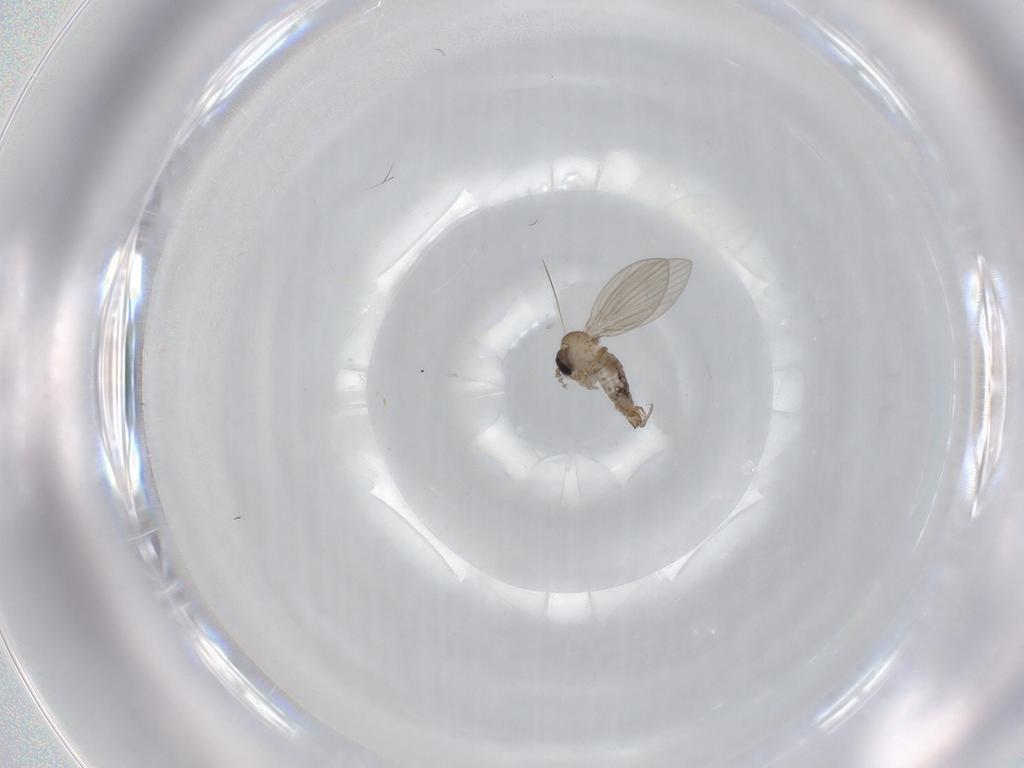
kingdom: Animalia
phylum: Arthropoda
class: Insecta
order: Diptera
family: Psychodidae
